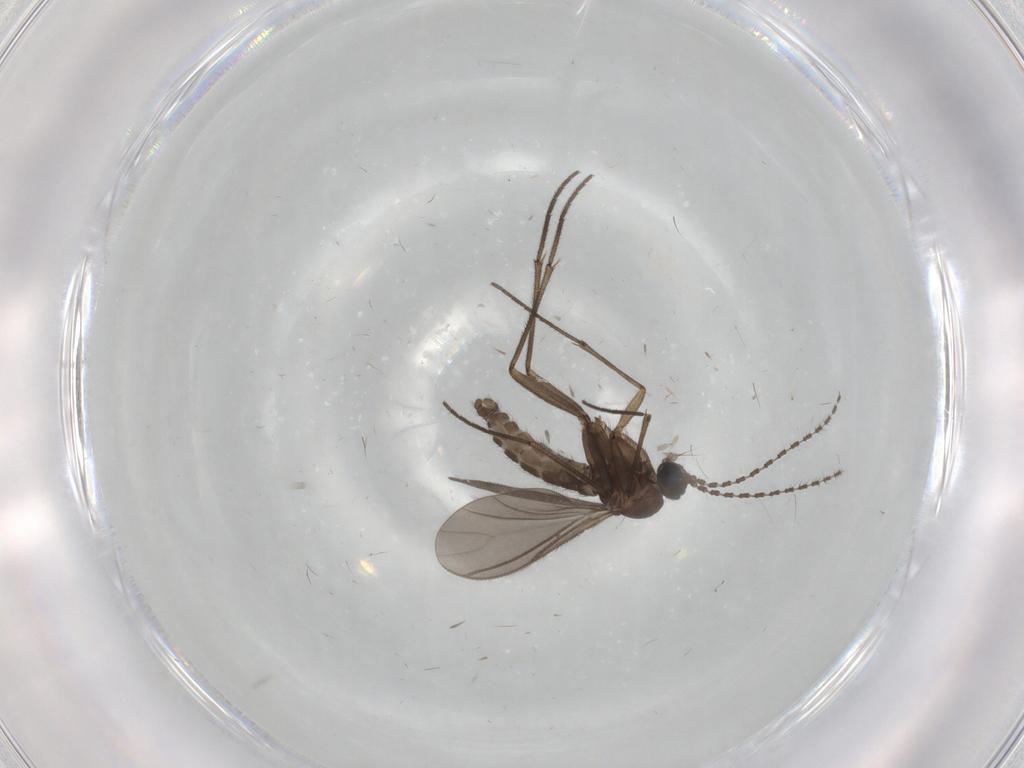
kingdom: Animalia
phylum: Arthropoda
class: Insecta
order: Diptera
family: Sciaridae
